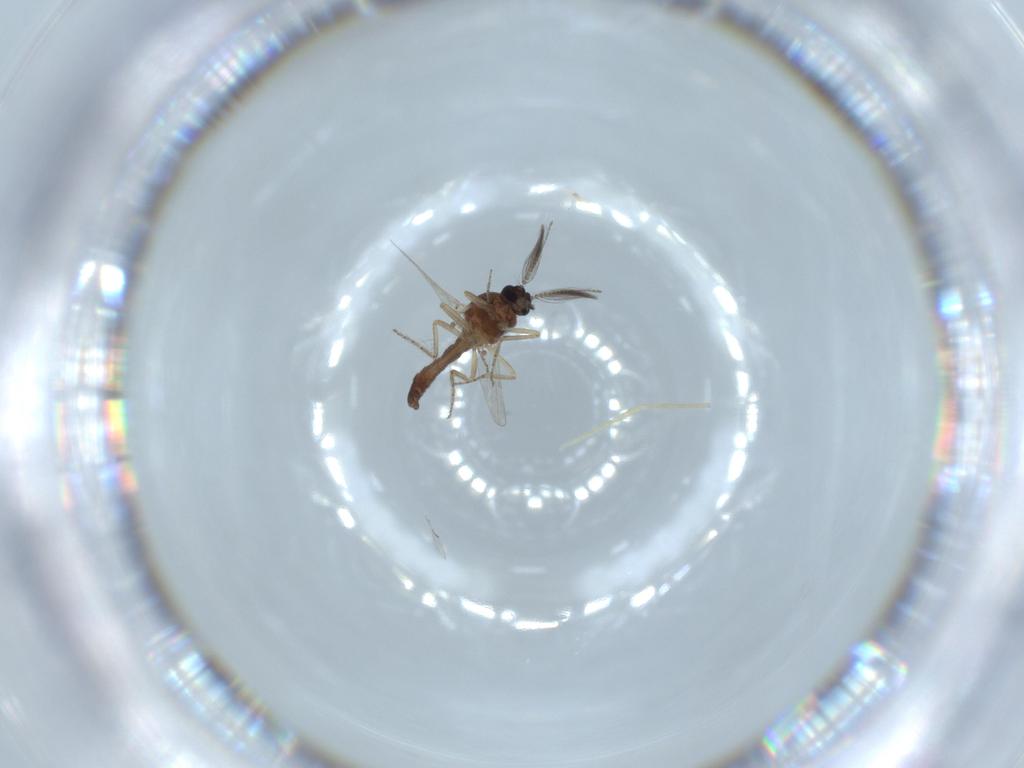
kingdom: Animalia
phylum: Arthropoda
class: Insecta
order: Diptera
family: Ceratopogonidae
